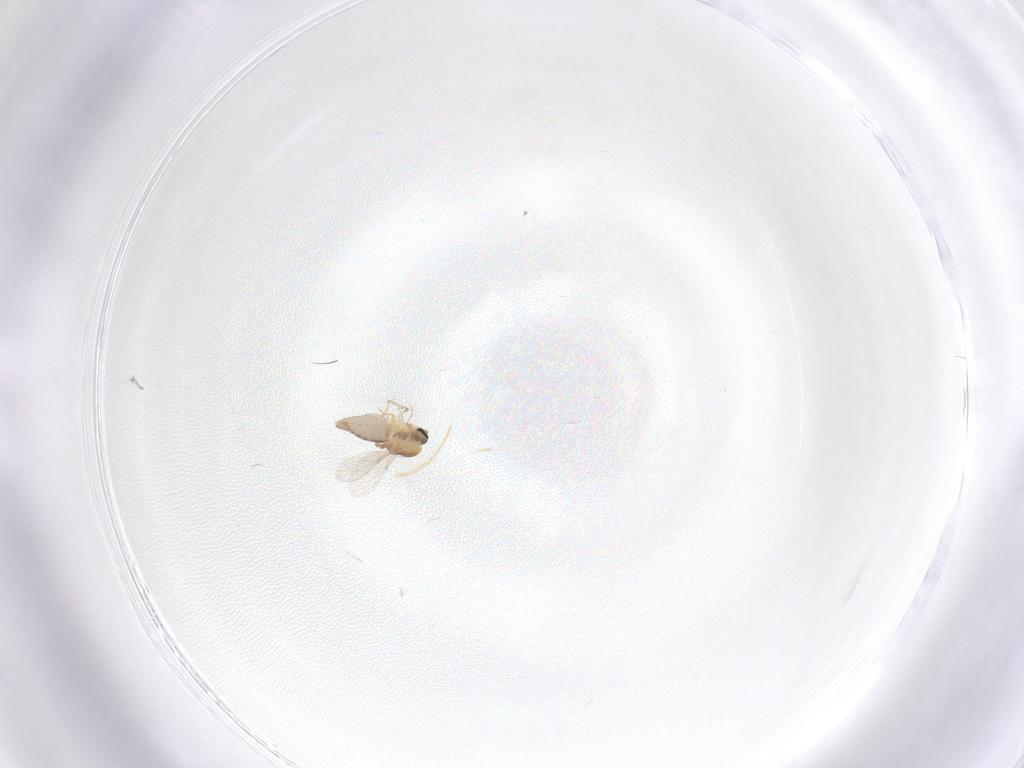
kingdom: Animalia
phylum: Arthropoda
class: Insecta
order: Diptera
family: Ceratopogonidae
